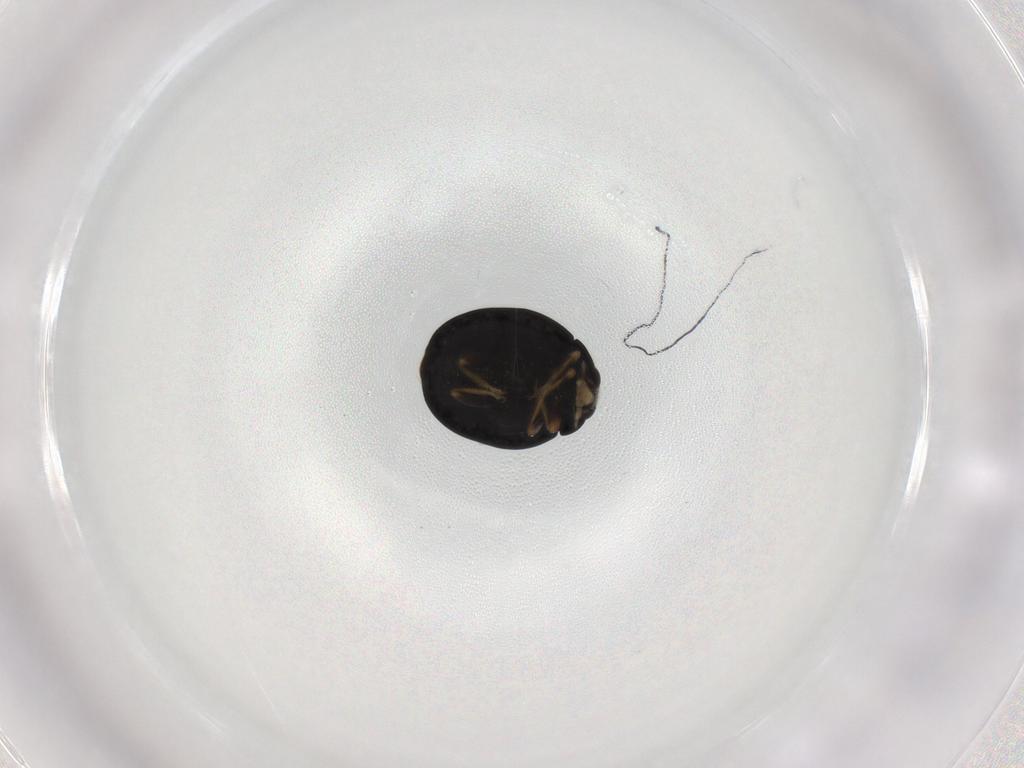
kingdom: Animalia
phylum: Arthropoda
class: Insecta
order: Coleoptera
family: Coccinellidae
